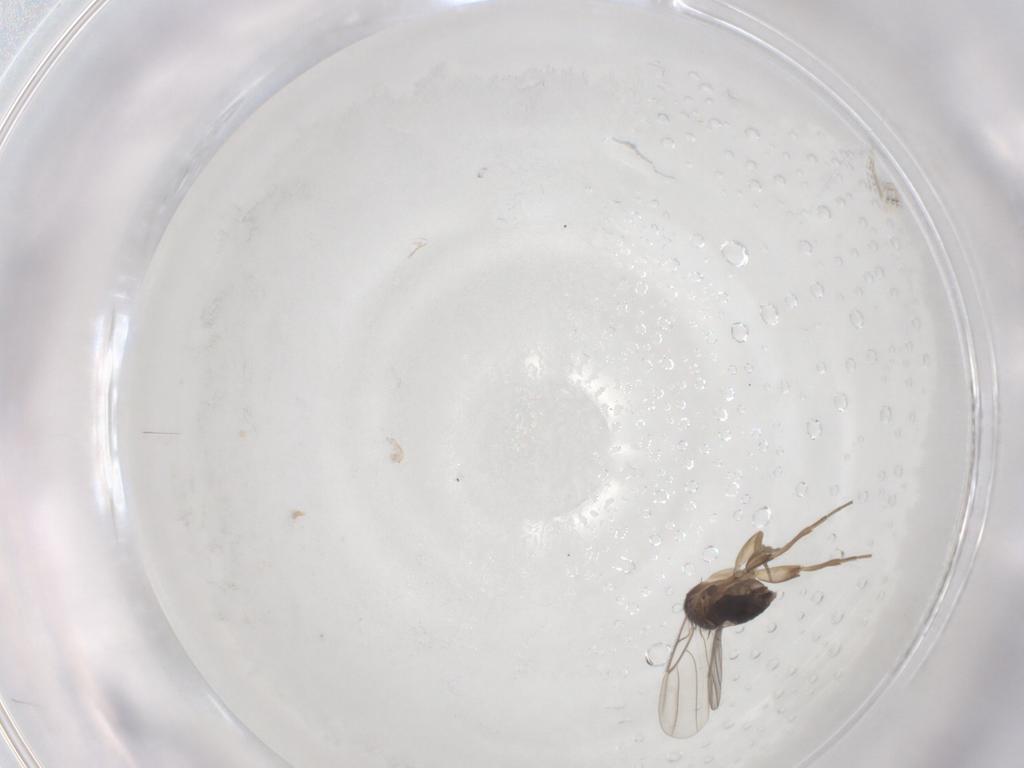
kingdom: Animalia
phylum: Arthropoda
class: Insecta
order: Diptera
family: Cecidomyiidae
